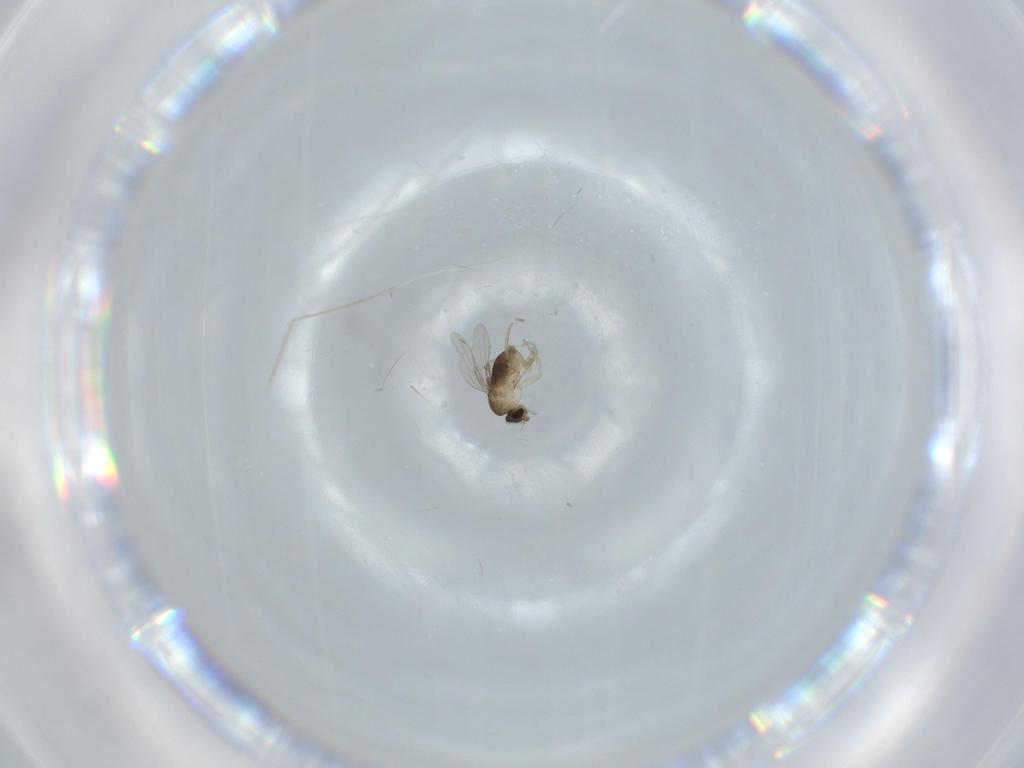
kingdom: Animalia
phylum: Arthropoda
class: Insecta
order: Diptera
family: Phoridae
